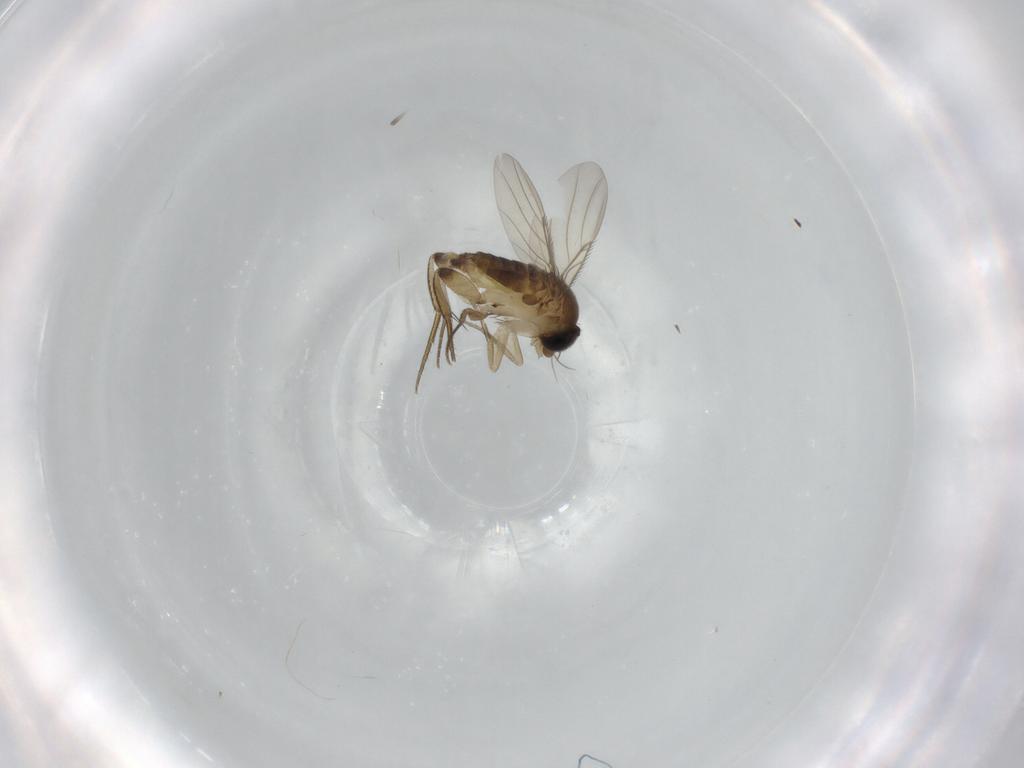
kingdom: Animalia
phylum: Arthropoda
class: Insecta
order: Diptera
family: Phoridae
